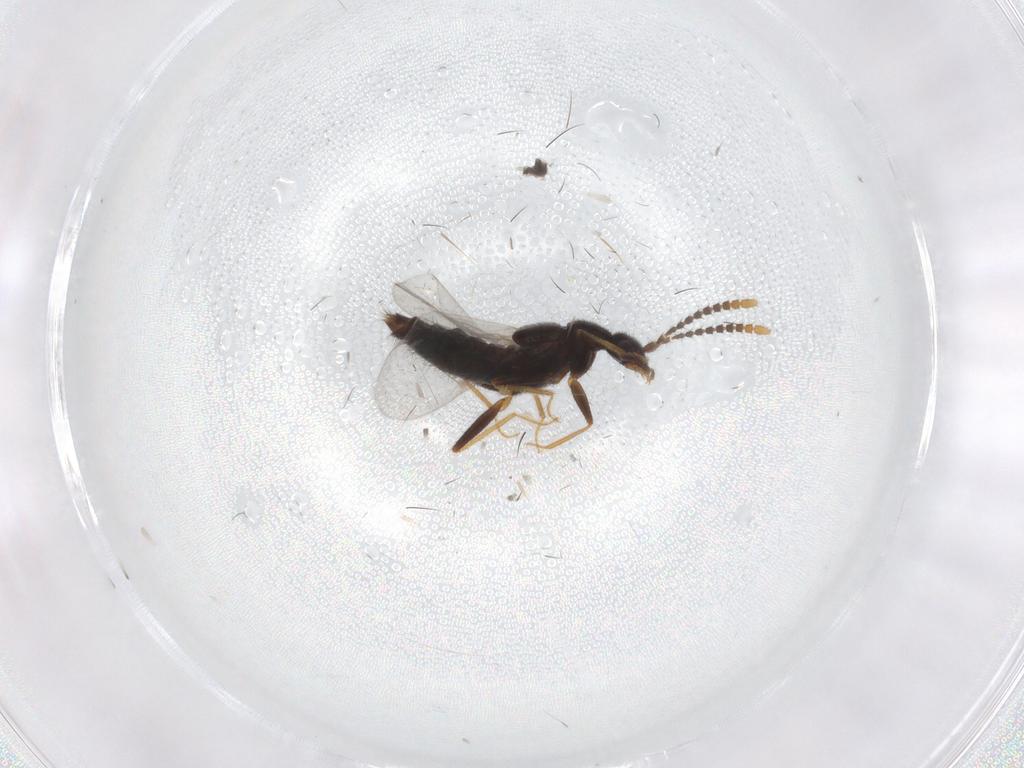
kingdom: Animalia
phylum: Arthropoda
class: Insecta
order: Coleoptera
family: Staphylinidae
